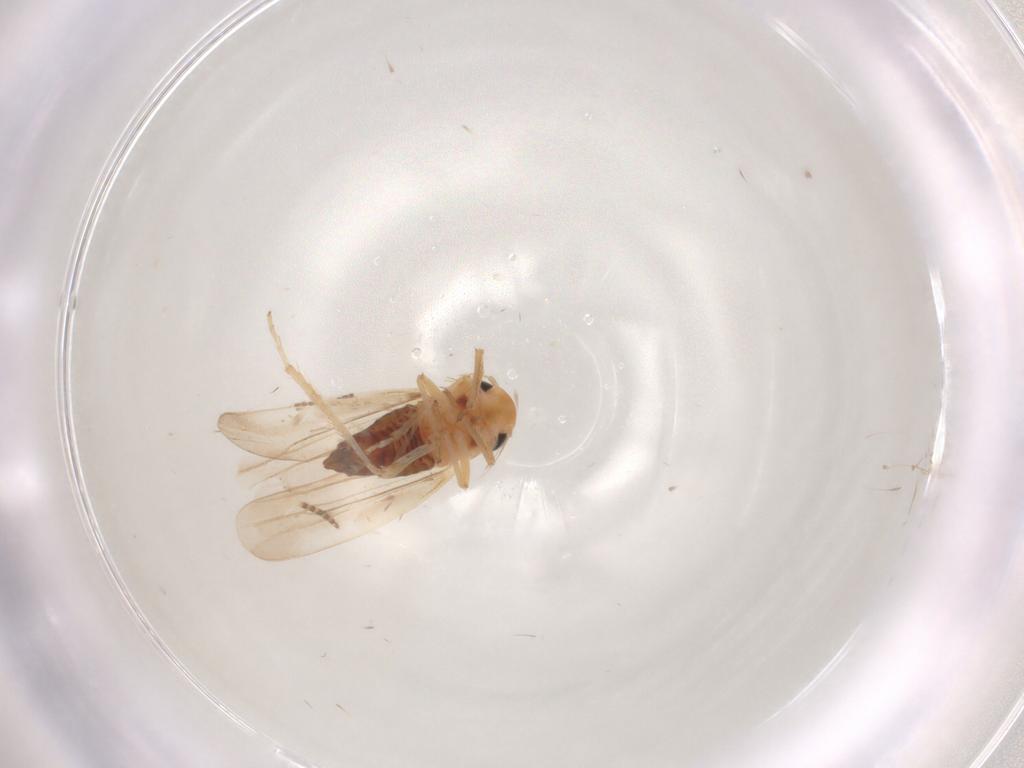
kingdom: Animalia
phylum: Arthropoda
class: Insecta
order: Hemiptera
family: Cicadellidae
